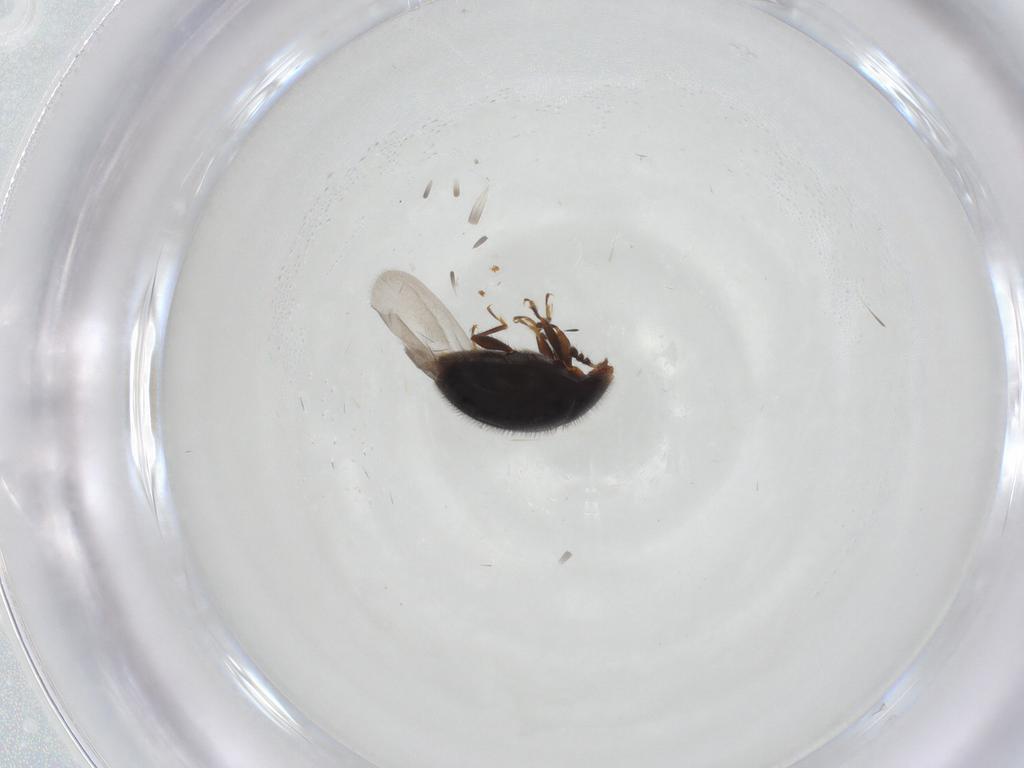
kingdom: Animalia
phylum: Arthropoda
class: Insecta
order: Coleoptera
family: Corylophidae
